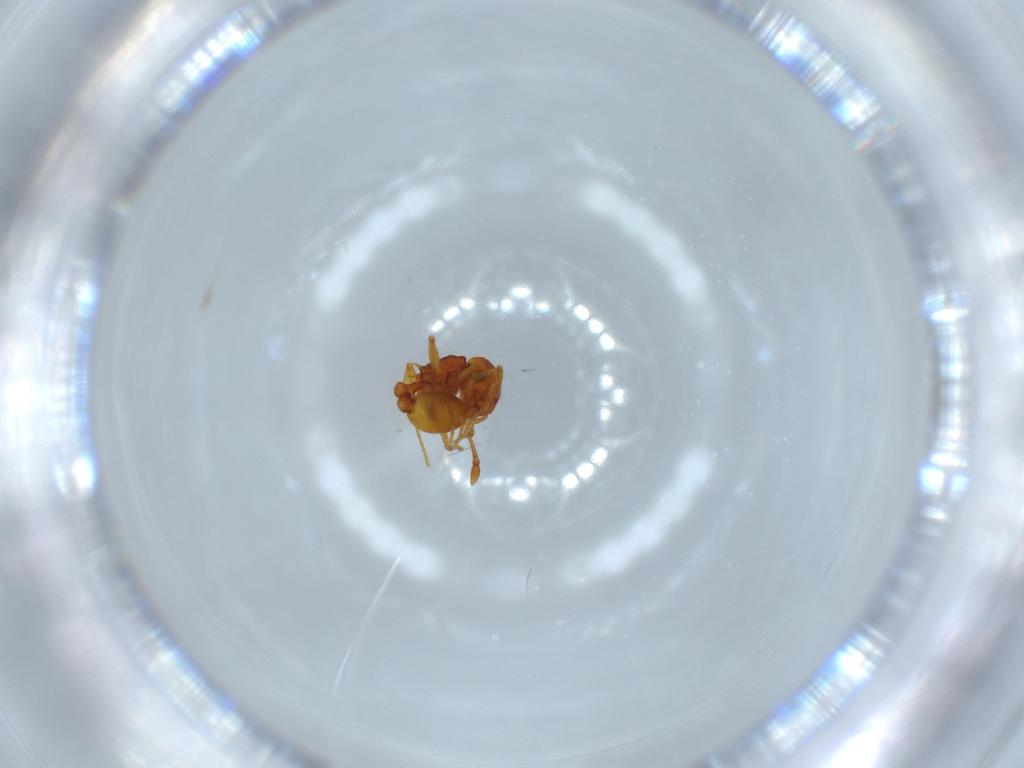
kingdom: Animalia
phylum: Arthropoda
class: Insecta
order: Hymenoptera
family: Formicidae
